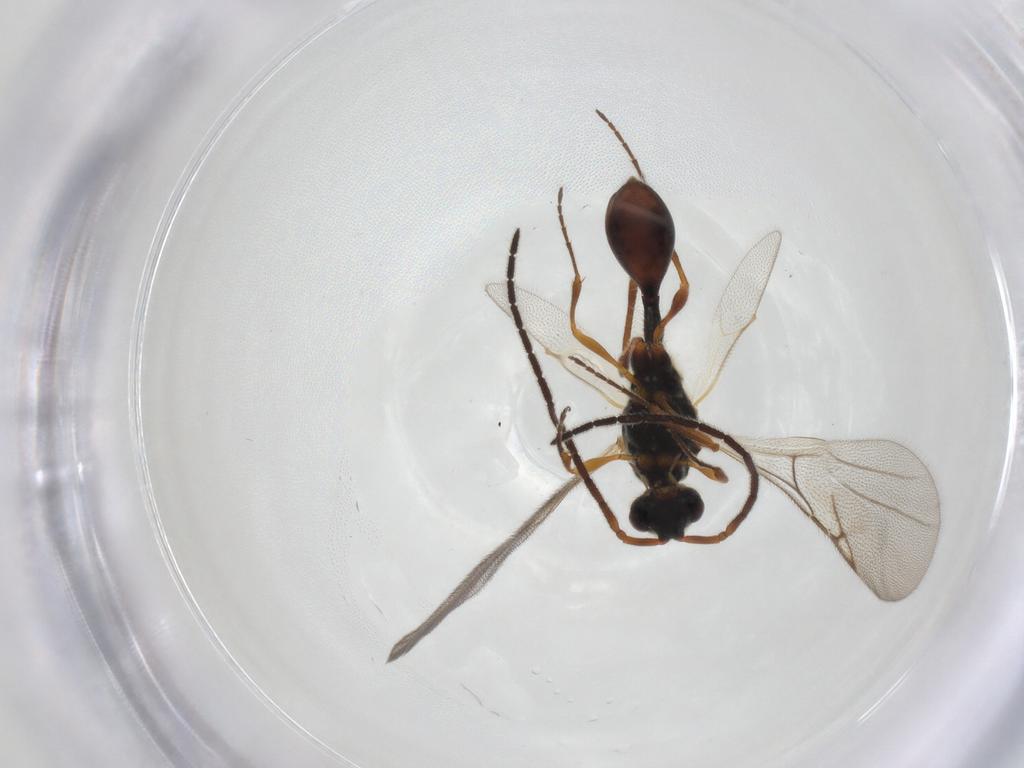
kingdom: Animalia
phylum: Arthropoda
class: Insecta
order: Hymenoptera
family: Diapriidae
